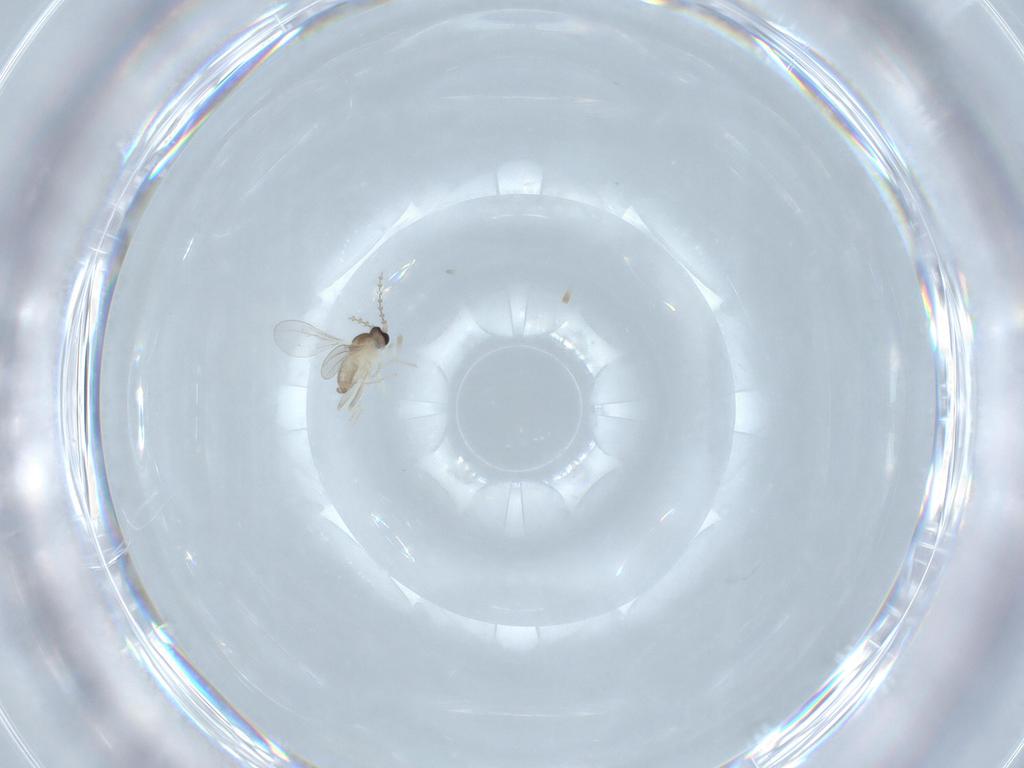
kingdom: Animalia
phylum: Arthropoda
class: Insecta
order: Diptera
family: Cecidomyiidae
